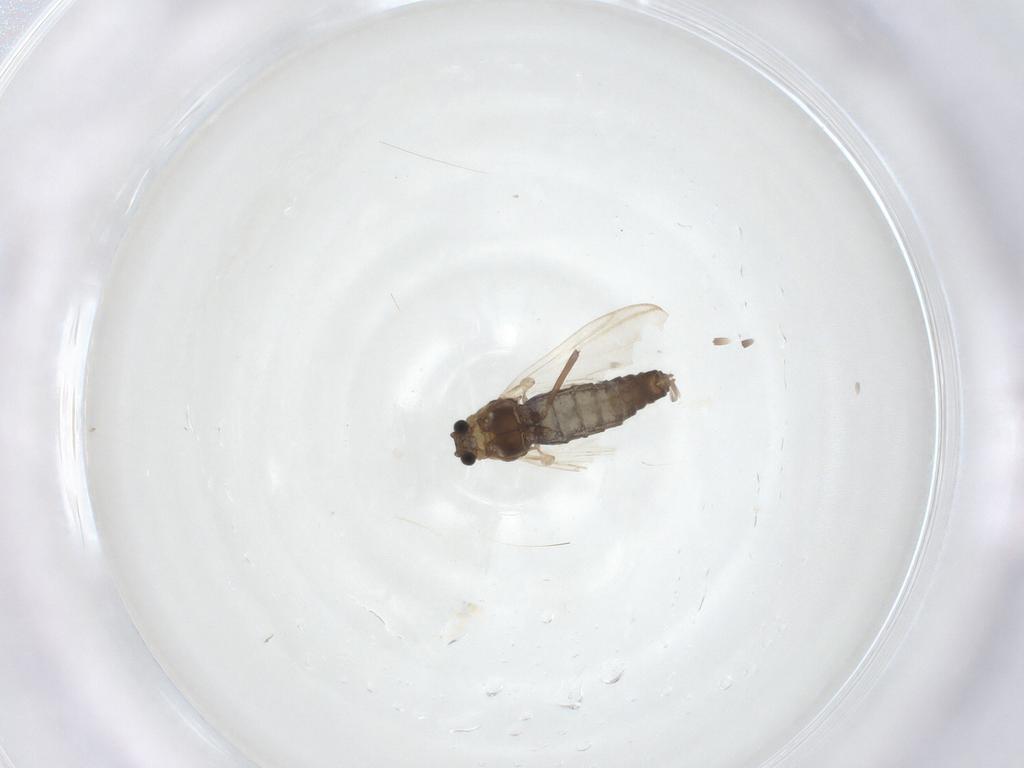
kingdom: Animalia
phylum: Arthropoda
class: Insecta
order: Diptera
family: Chironomidae
